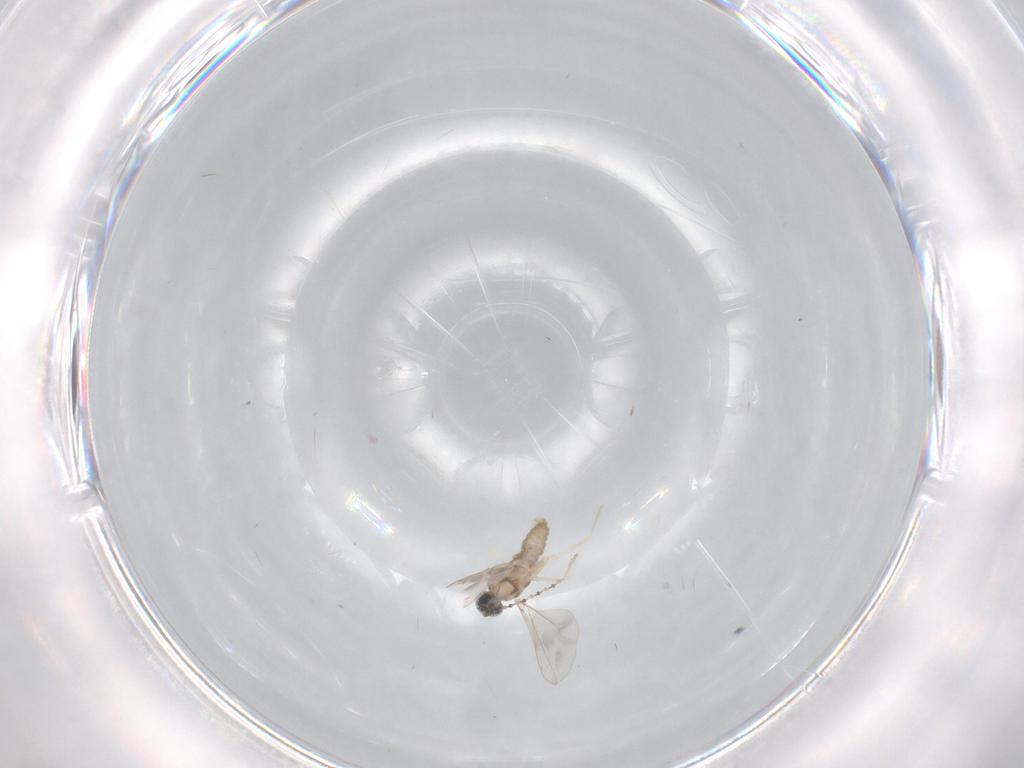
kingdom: Animalia
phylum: Arthropoda
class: Insecta
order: Diptera
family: Cecidomyiidae
